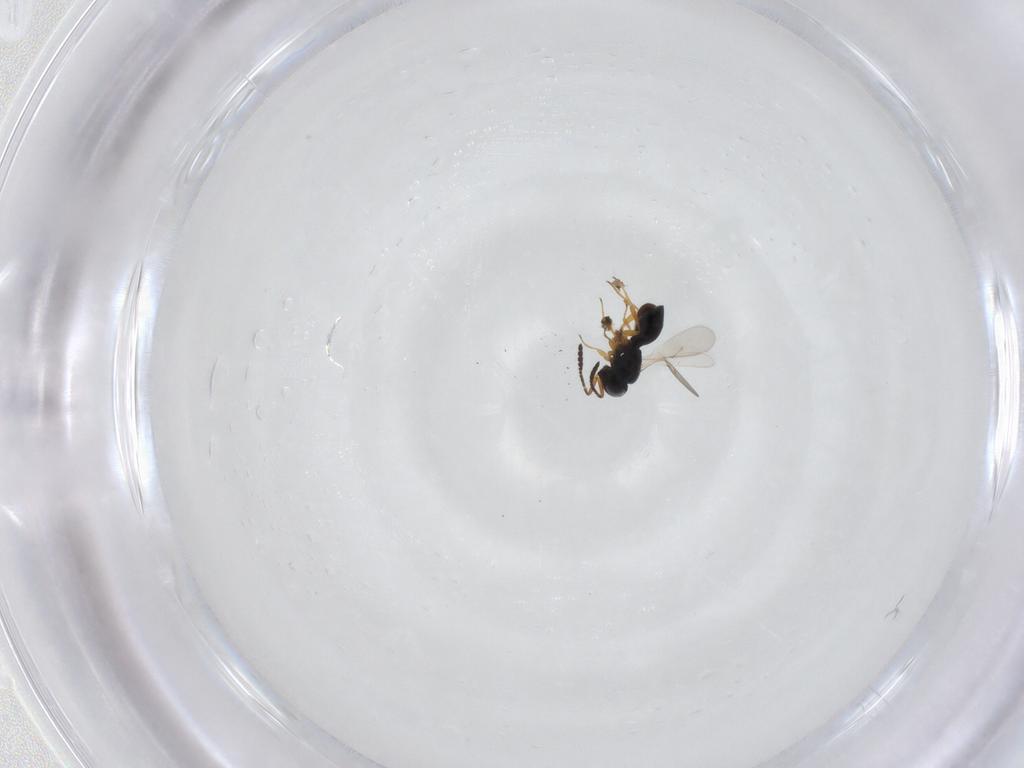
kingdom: Animalia
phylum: Arthropoda
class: Insecta
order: Hymenoptera
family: Scelionidae
